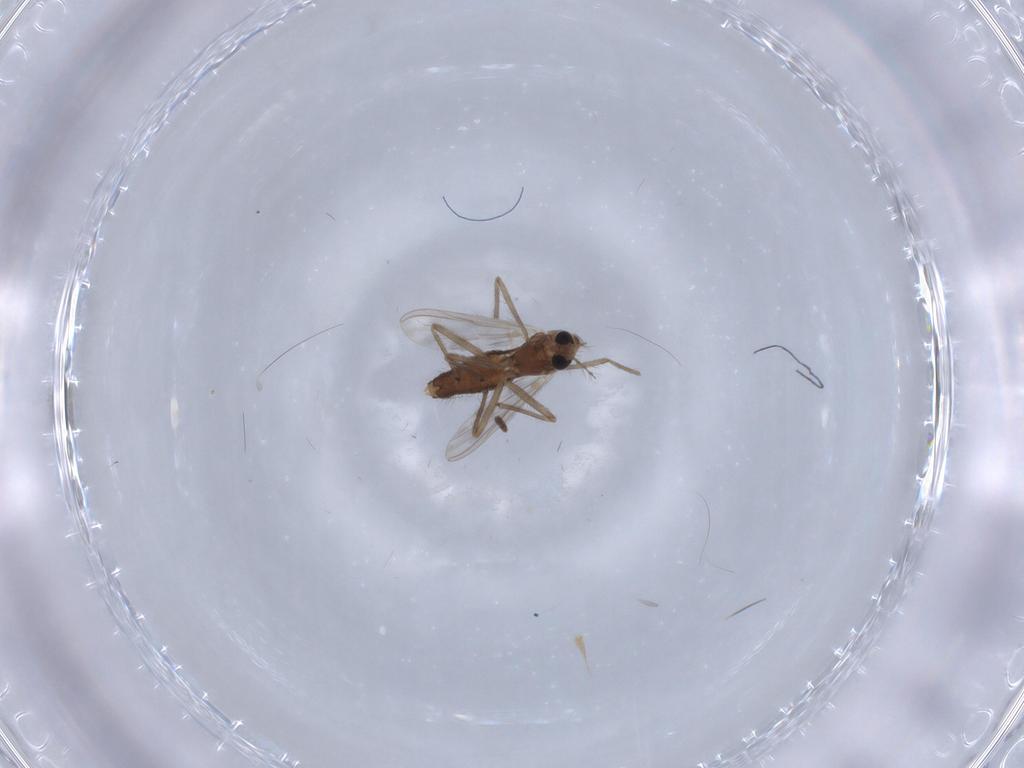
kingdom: Animalia
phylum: Arthropoda
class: Insecta
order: Diptera
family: Chironomidae
